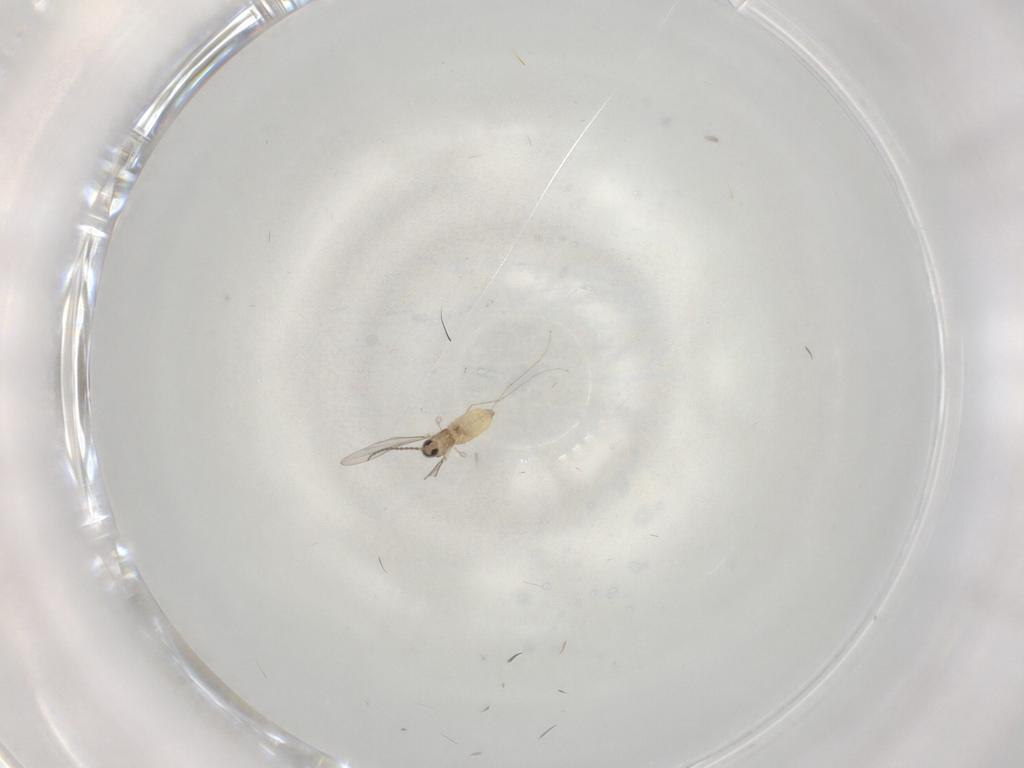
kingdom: Animalia
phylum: Arthropoda
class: Insecta
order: Diptera
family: Cecidomyiidae
